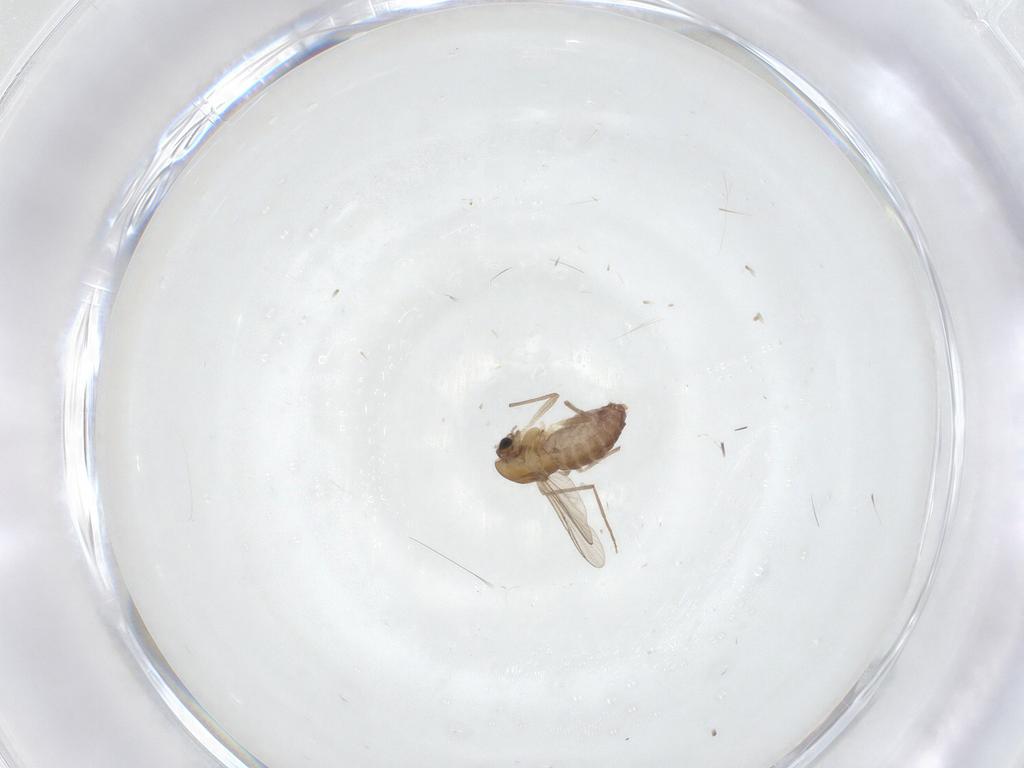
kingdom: Animalia
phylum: Arthropoda
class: Insecta
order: Diptera
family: Chironomidae
